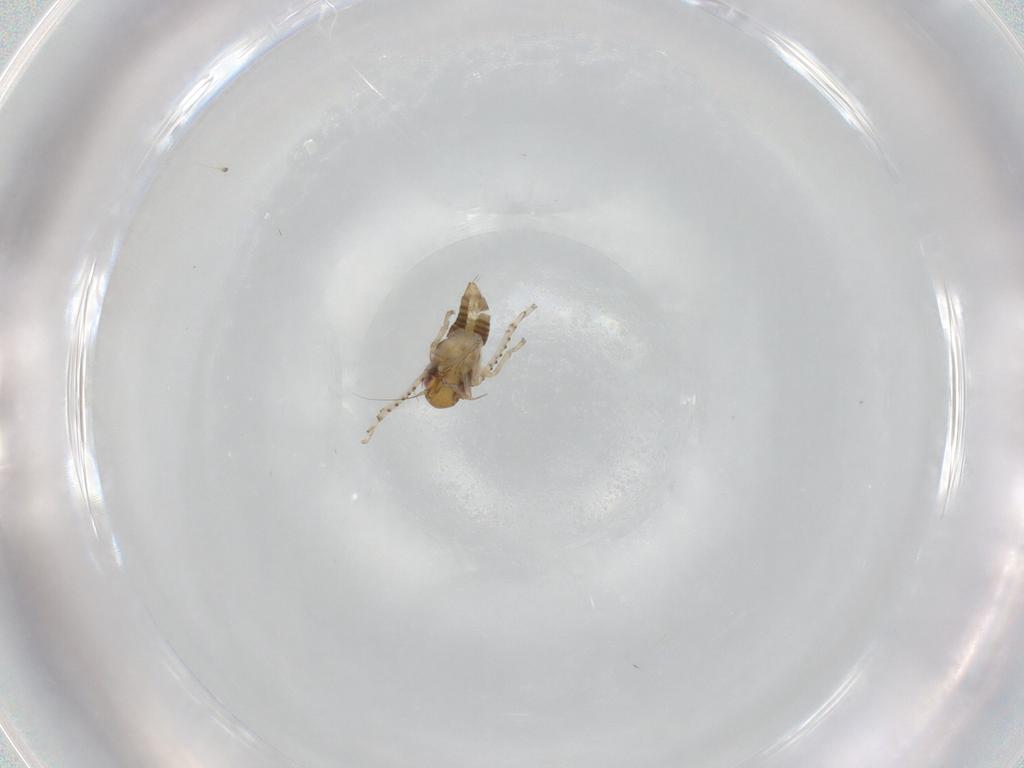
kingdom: Animalia
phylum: Arthropoda
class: Insecta
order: Hemiptera
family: Cicadellidae
